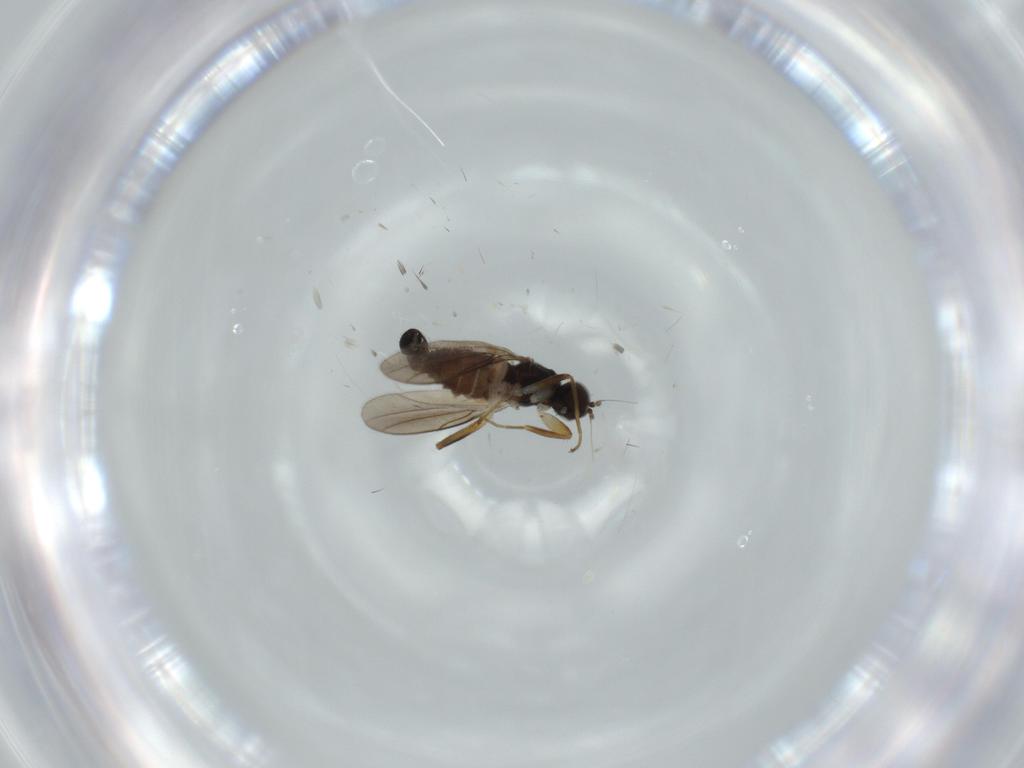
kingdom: Animalia
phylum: Arthropoda
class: Insecta
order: Diptera
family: Hybotidae
